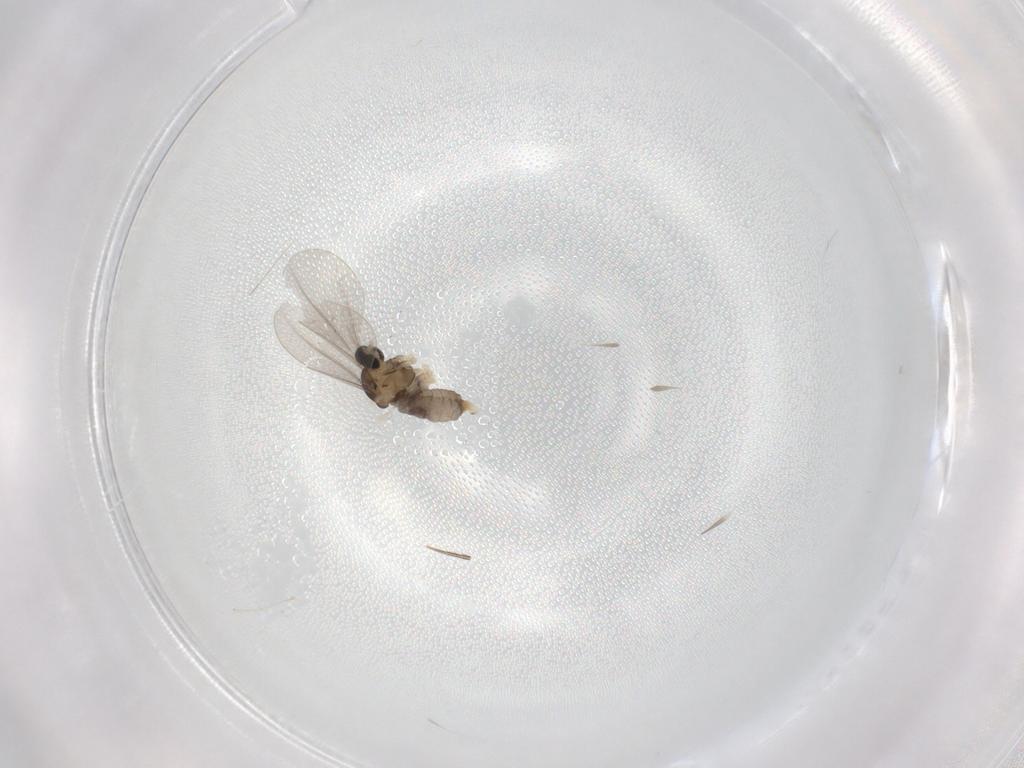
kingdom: Animalia
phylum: Arthropoda
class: Insecta
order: Diptera
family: Cecidomyiidae
